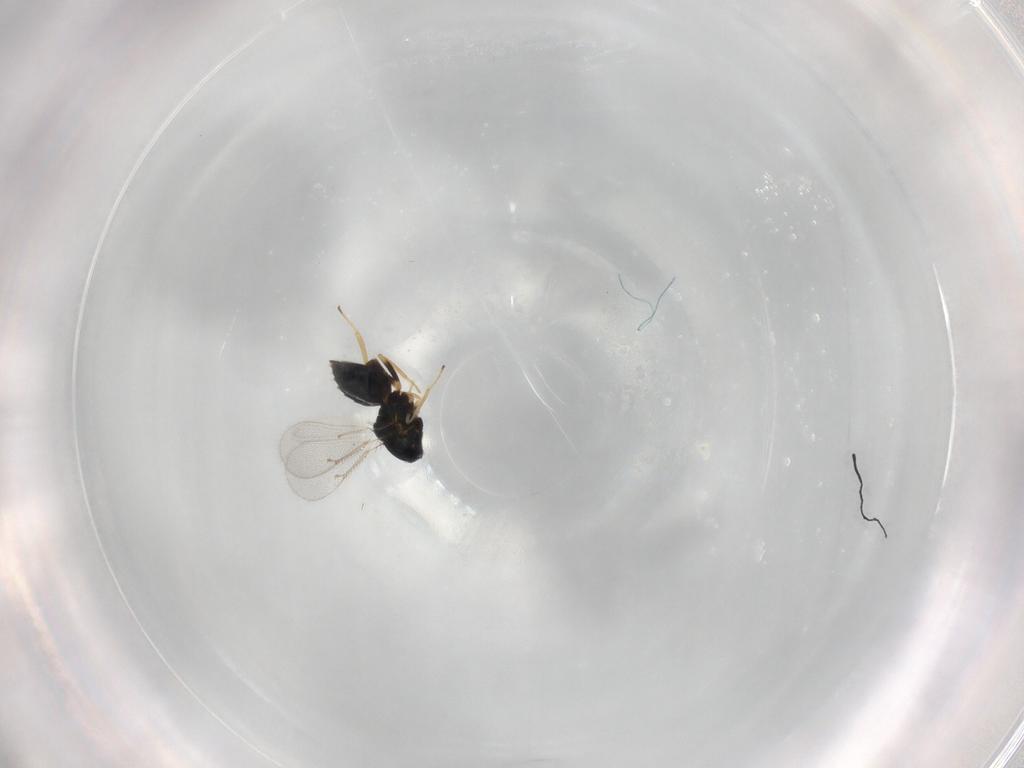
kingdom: Animalia
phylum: Arthropoda
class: Insecta
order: Hymenoptera
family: Eulophidae
